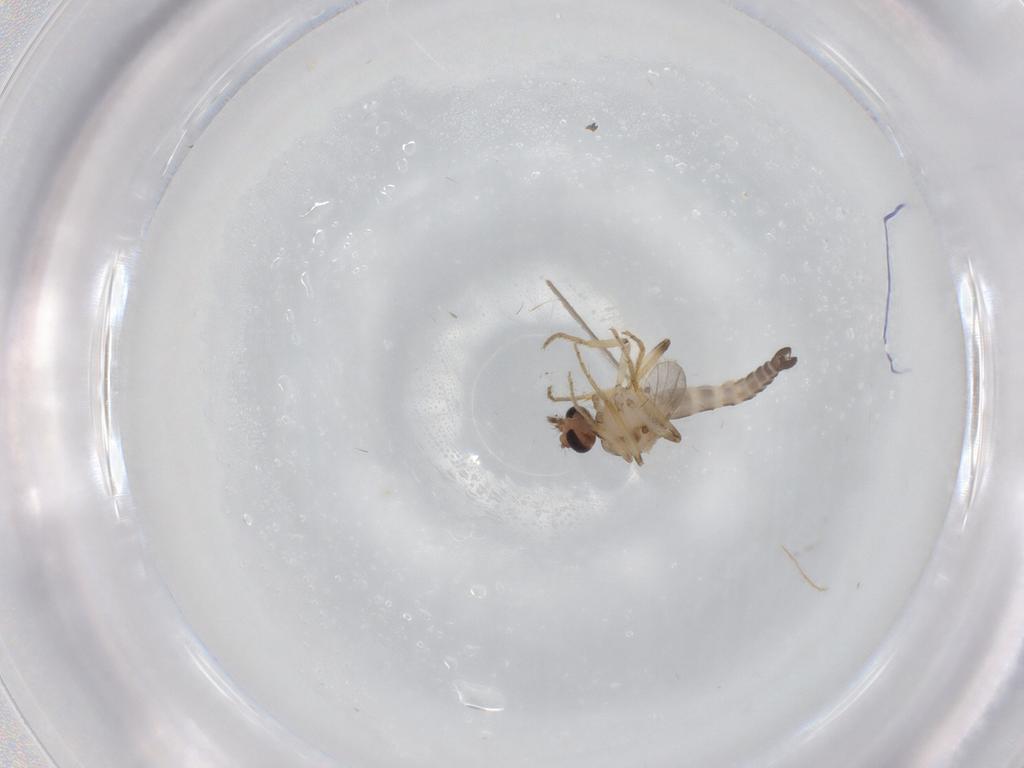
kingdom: Animalia
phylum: Arthropoda
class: Insecta
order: Diptera
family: Ceratopogonidae
